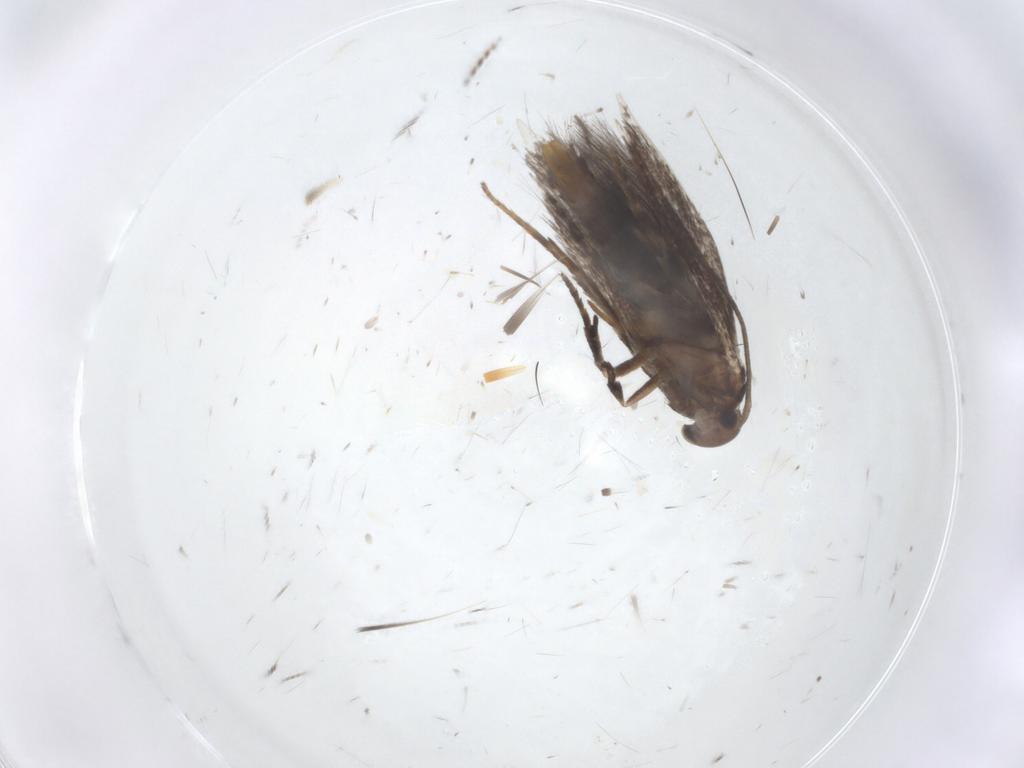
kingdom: Animalia
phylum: Arthropoda
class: Insecta
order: Lepidoptera
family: Elachistidae
